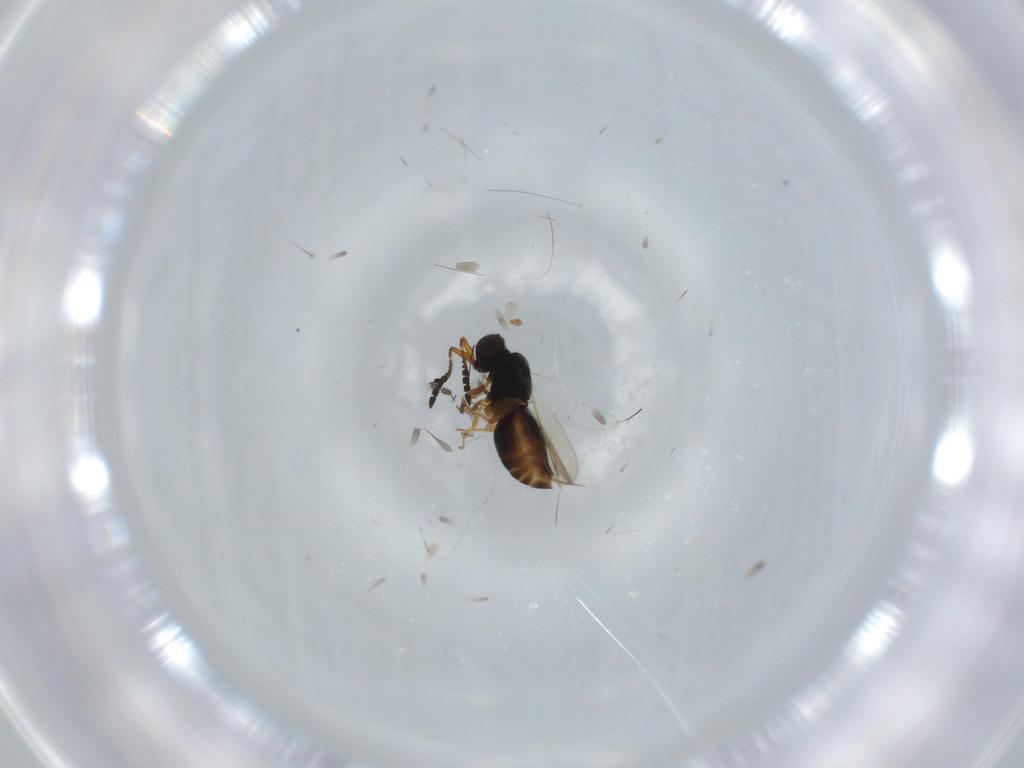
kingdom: Animalia
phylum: Arthropoda
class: Insecta
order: Hymenoptera
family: Ceraphronidae
